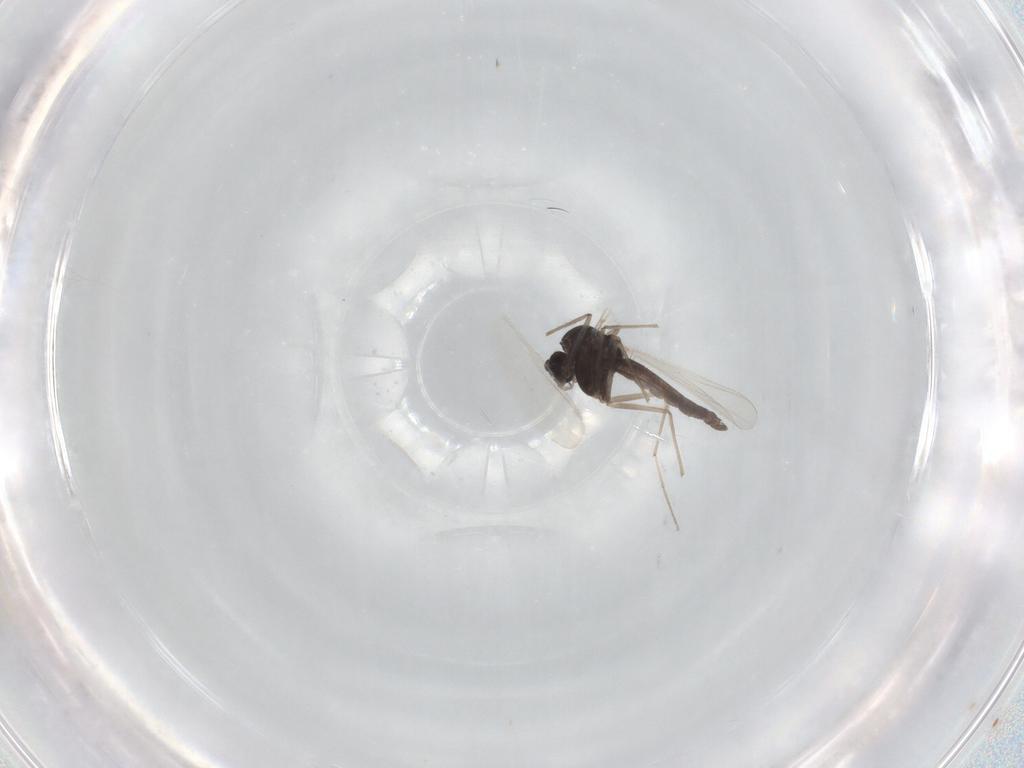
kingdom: Animalia
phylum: Arthropoda
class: Insecta
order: Diptera
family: Chironomidae
